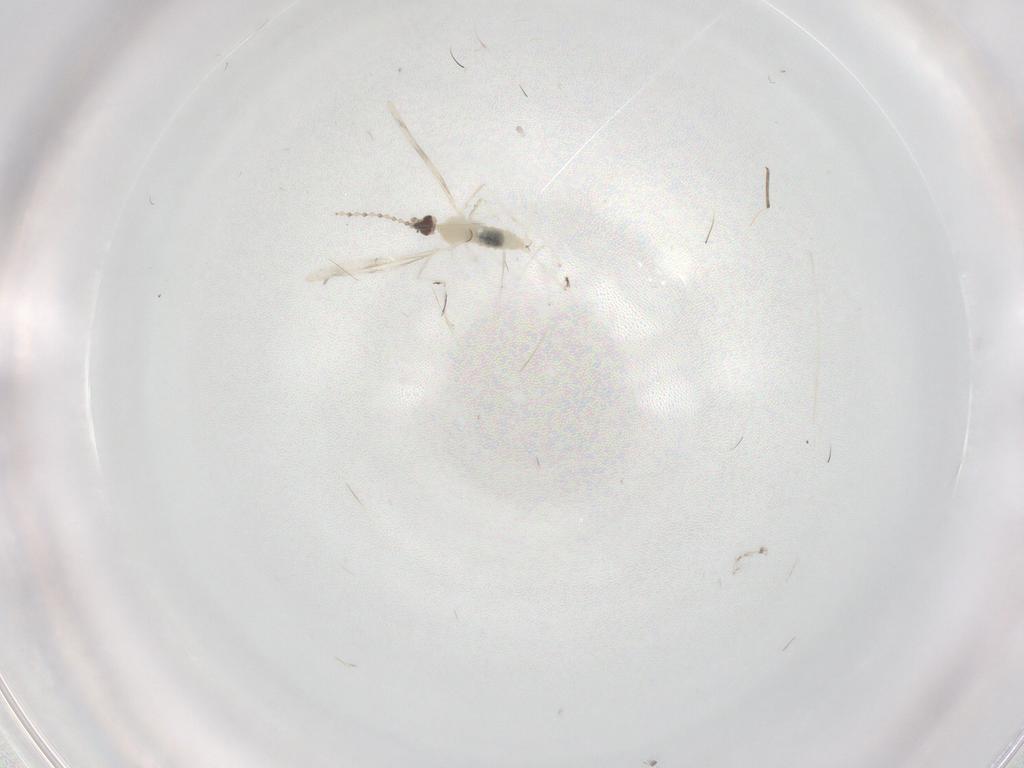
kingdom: Animalia
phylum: Arthropoda
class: Insecta
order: Diptera
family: Cecidomyiidae
